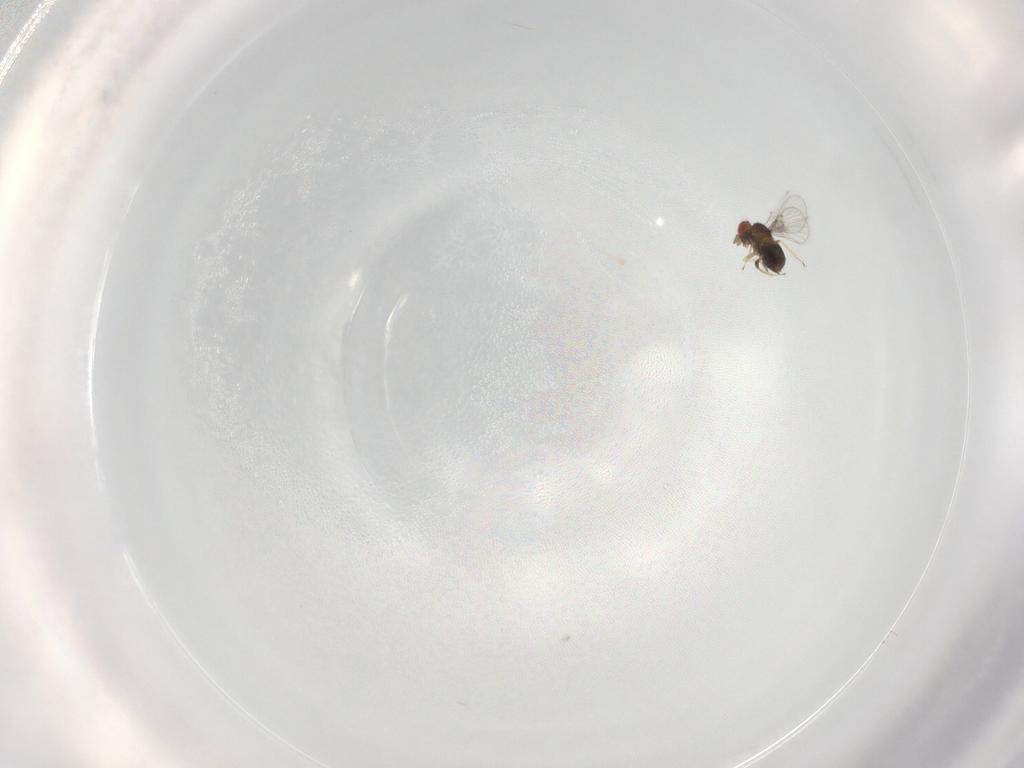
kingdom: Animalia
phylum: Arthropoda
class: Insecta
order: Hymenoptera
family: Trichogrammatidae
